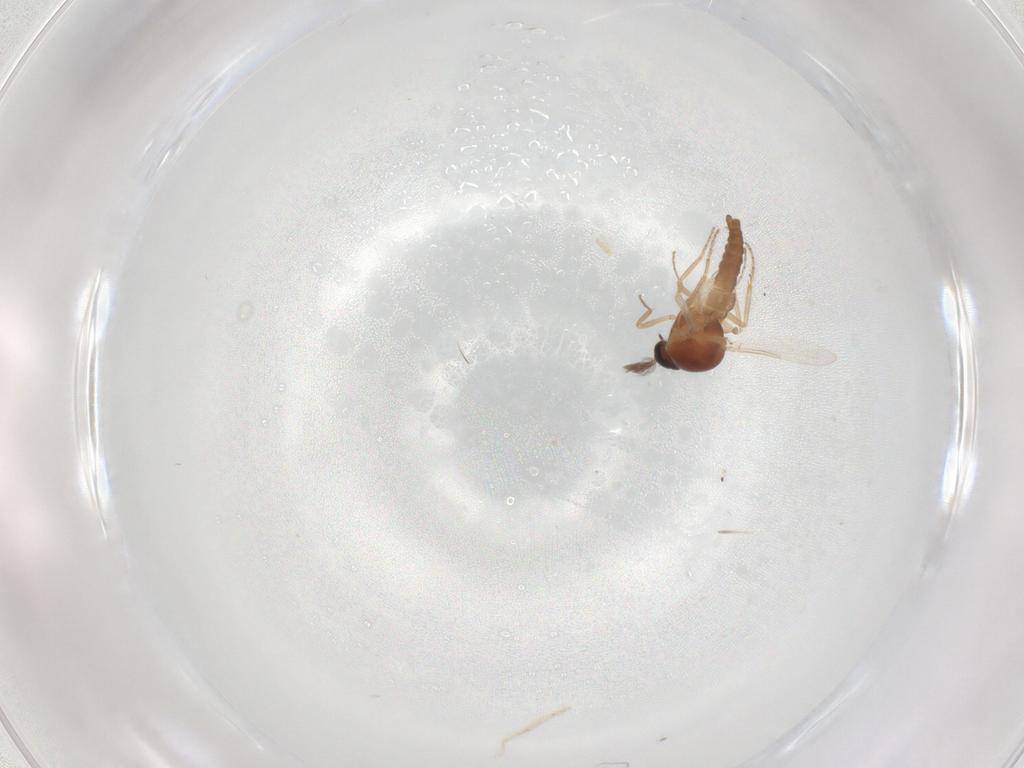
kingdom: Animalia
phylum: Arthropoda
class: Insecta
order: Diptera
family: Ceratopogonidae
